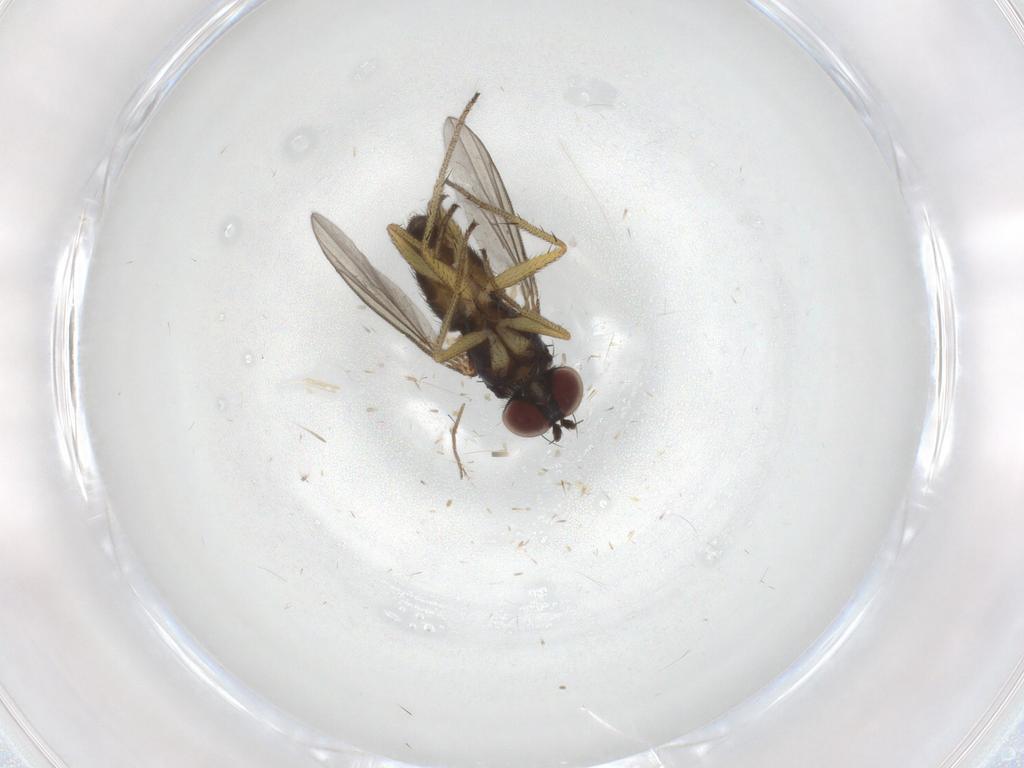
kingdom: Animalia
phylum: Arthropoda
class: Insecta
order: Diptera
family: Dolichopodidae
